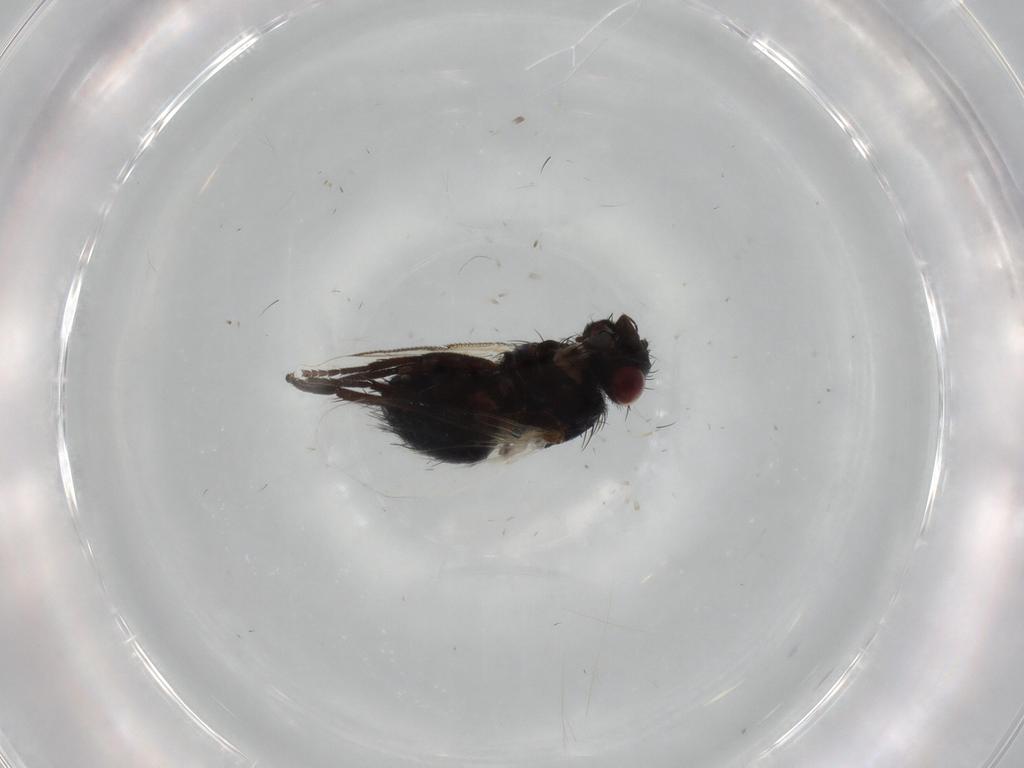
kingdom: Animalia
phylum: Arthropoda
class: Insecta
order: Diptera
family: Tachinidae
